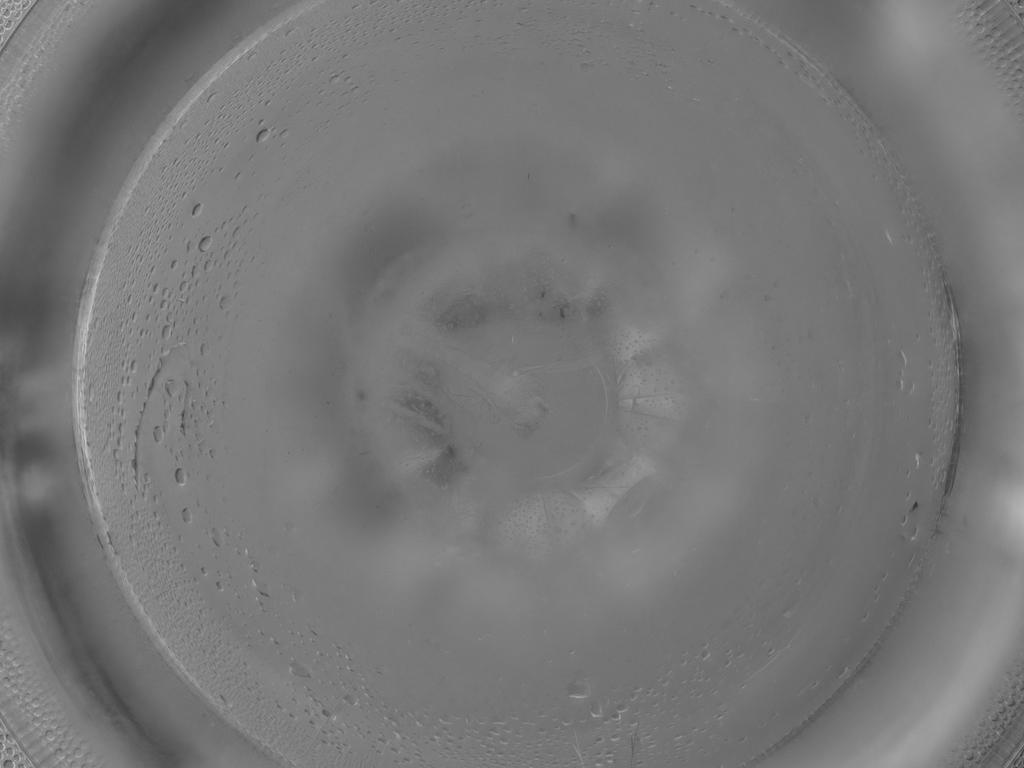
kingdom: Animalia
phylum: Arthropoda
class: Insecta
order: Diptera
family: Ceratopogonidae
